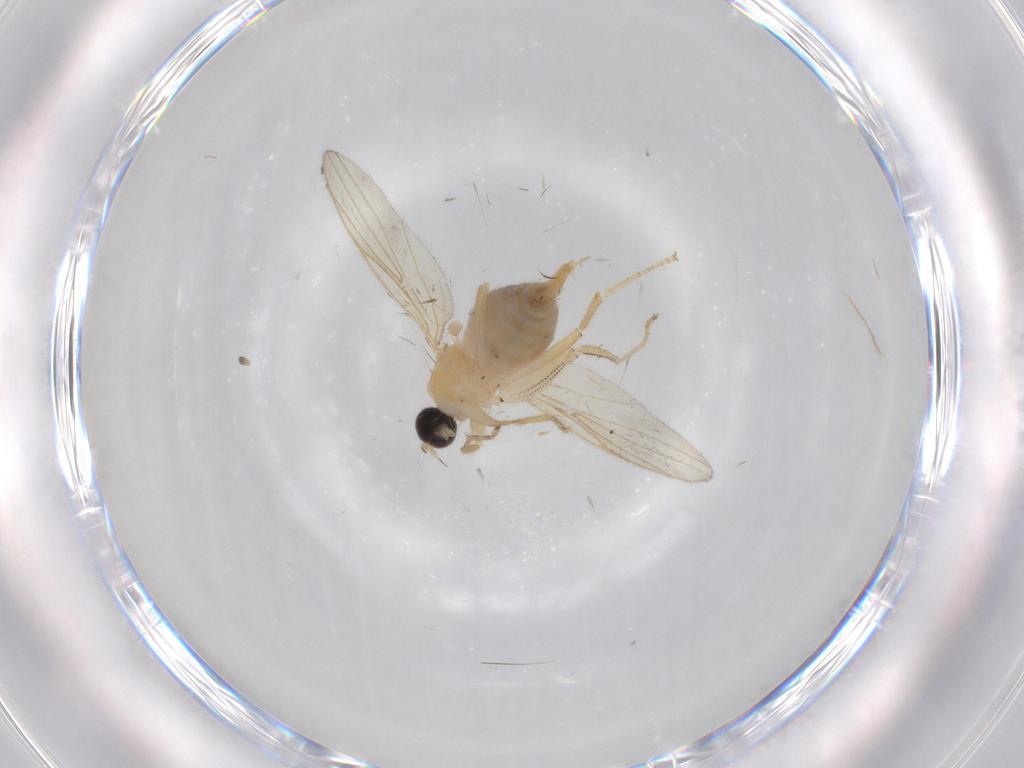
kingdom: Animalia
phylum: Arthropoda
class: Insecta
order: Diptera
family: Hybotidae
